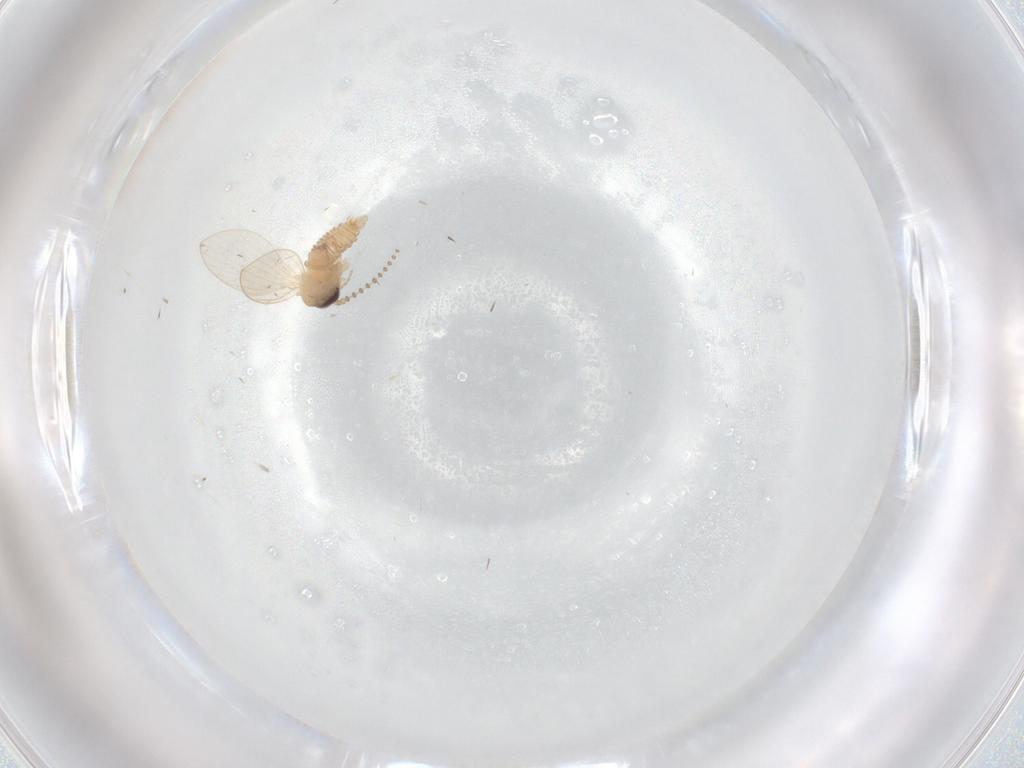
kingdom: Animalia
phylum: Arthropoda
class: Insecta
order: Diptera
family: Psychodidae
